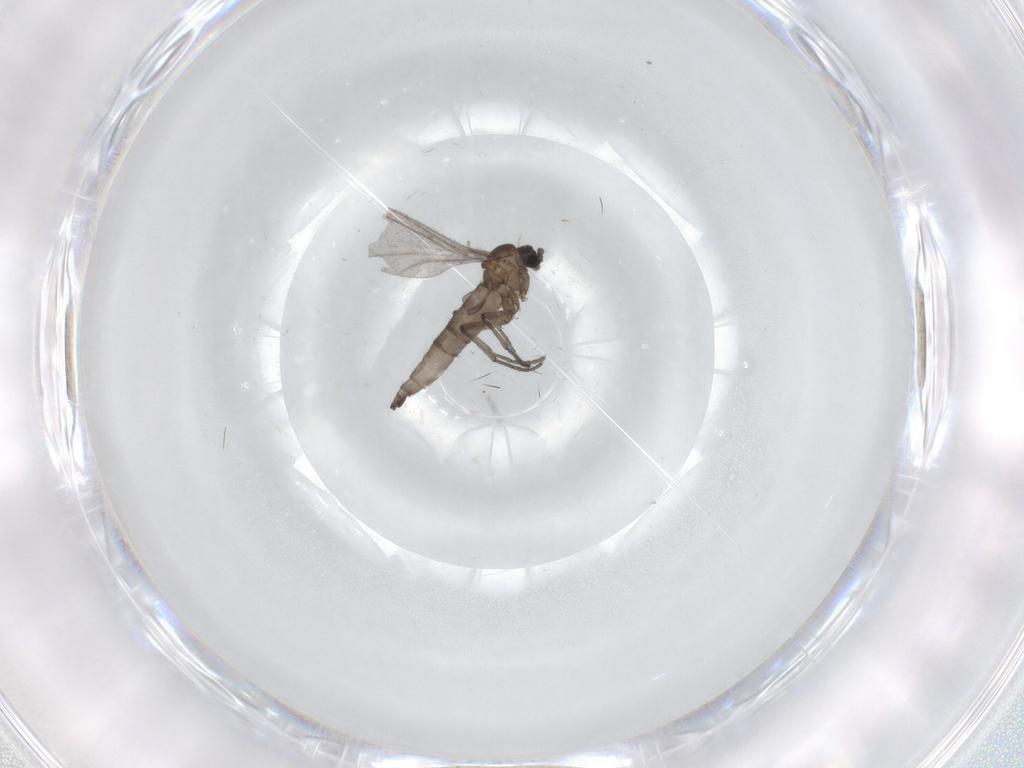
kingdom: Animalia
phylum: Arthropoda
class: Insecta
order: Diptera
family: Sciaridae
